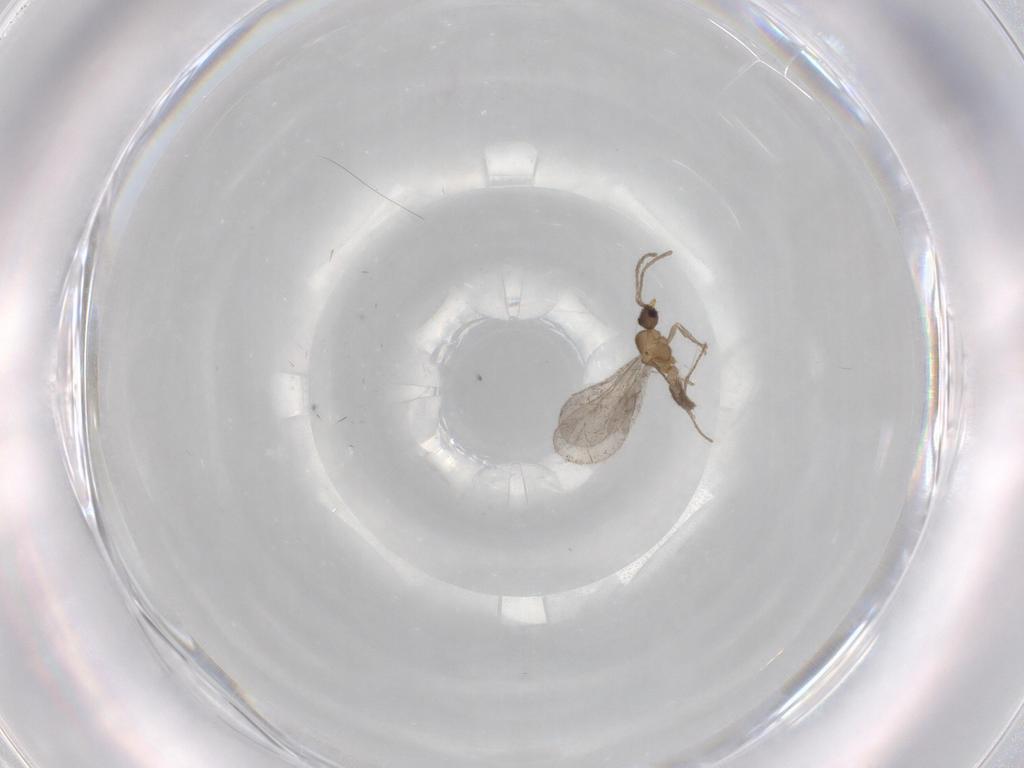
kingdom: Animalia
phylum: Arthropoda
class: Insecta
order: Hymenoptera
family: Formicidae
